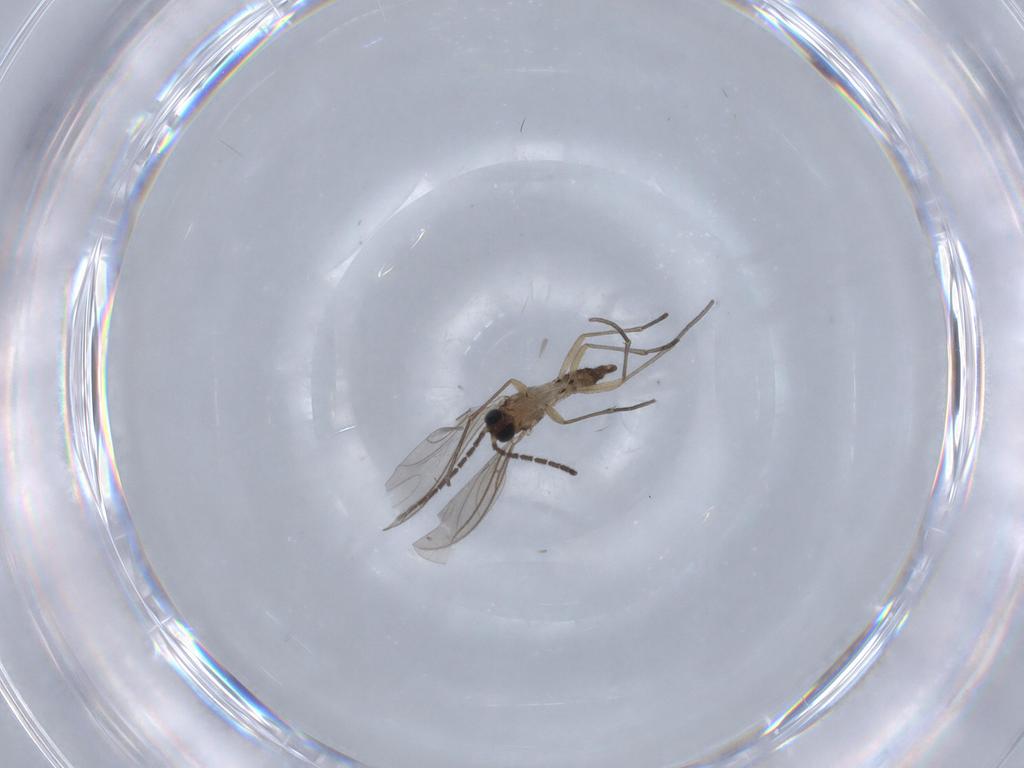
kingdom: Animalia
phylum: Arthropoda
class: Insecta
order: Diptera
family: Sciaridae
